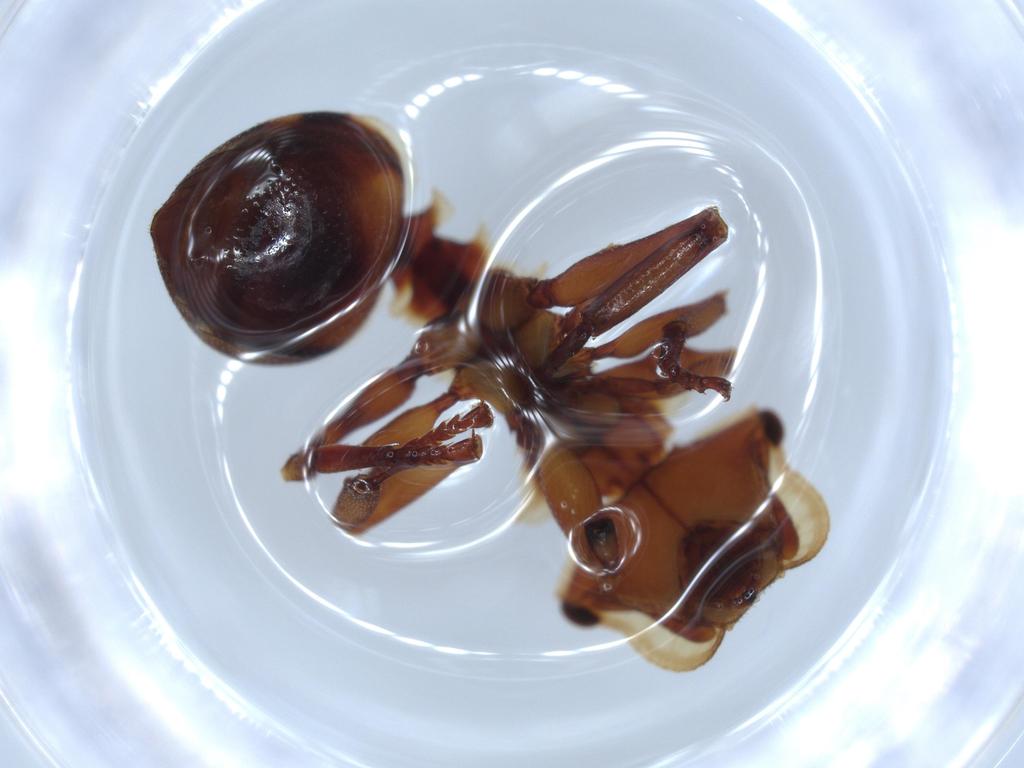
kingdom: Animalia
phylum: Arthropoda
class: Insecta
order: Hymenoptera
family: Formicidae
